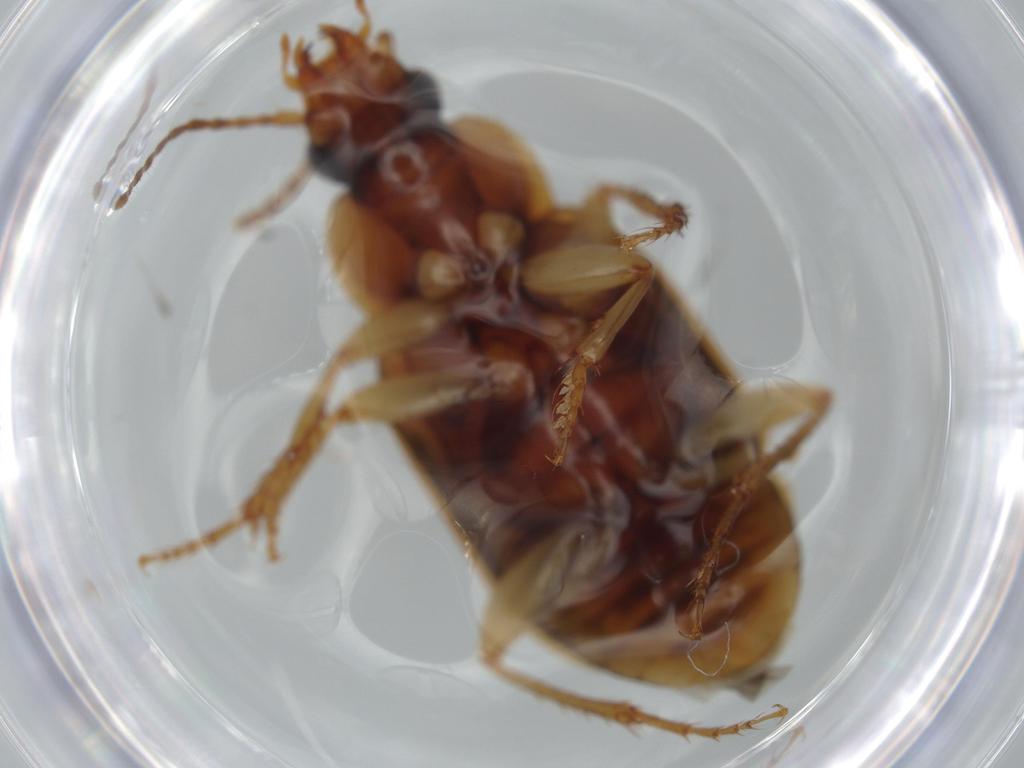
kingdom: Animalia
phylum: Arthropoda
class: Insecta
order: Coleoptera
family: Carabidae
